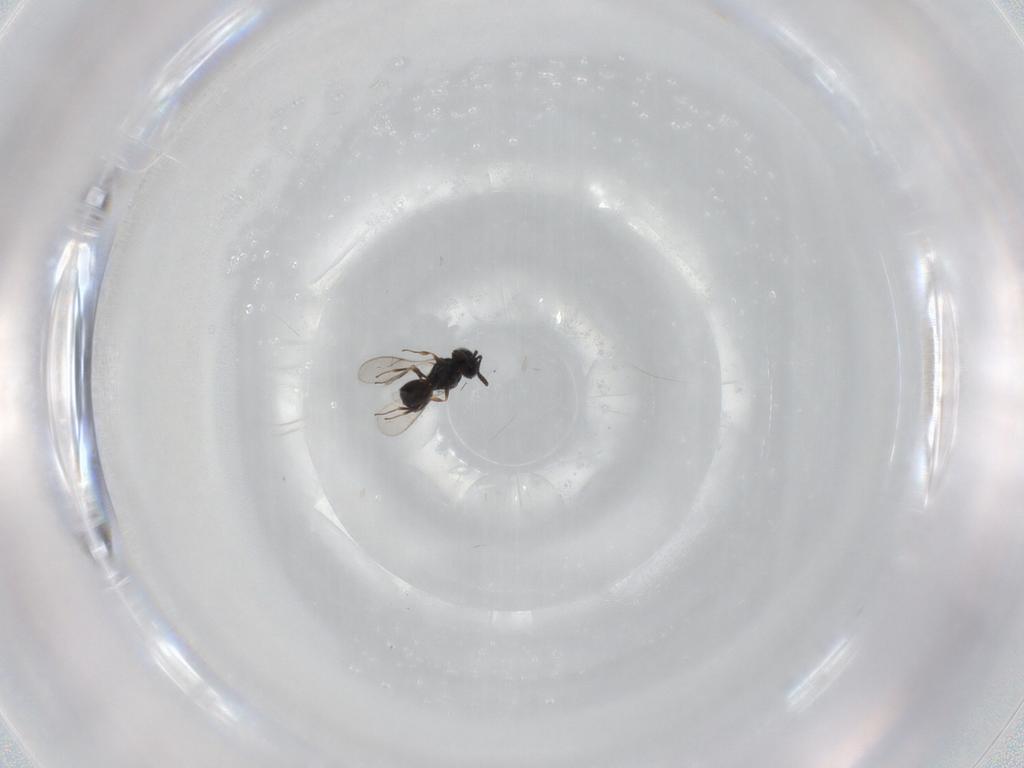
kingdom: Animalia
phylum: Arthropoda
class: Insecta
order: Hymenoptera
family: Scelionidae
